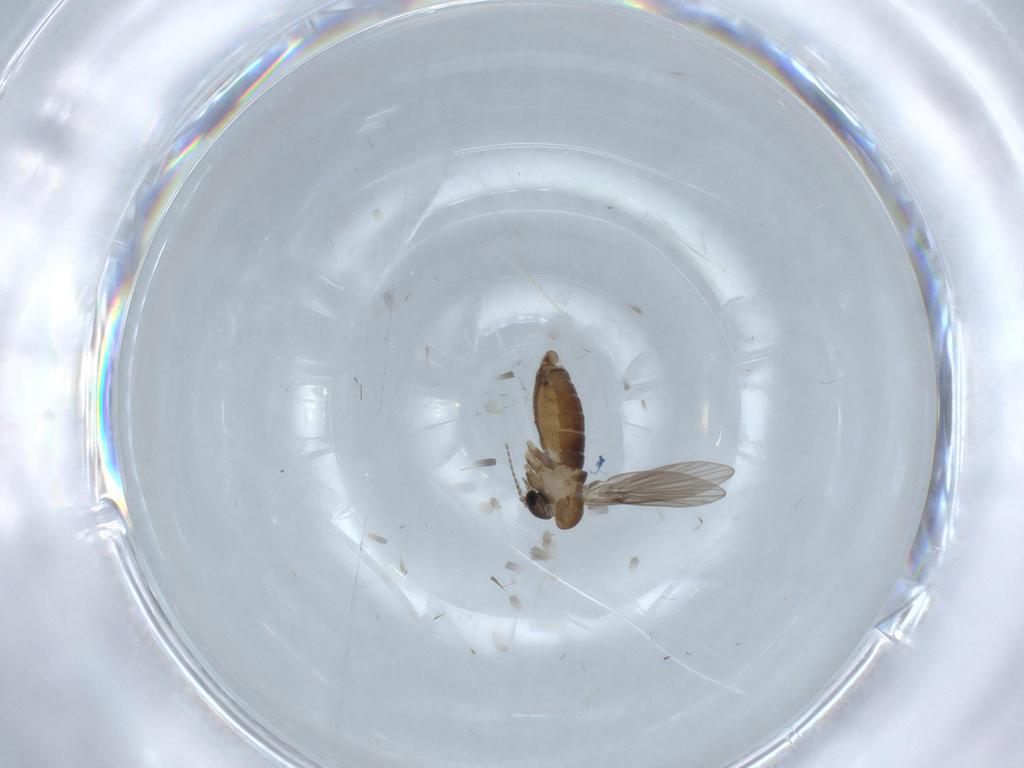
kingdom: Animalia
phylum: Arthropoda
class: Insecta
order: Diptera
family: Psychodidae
